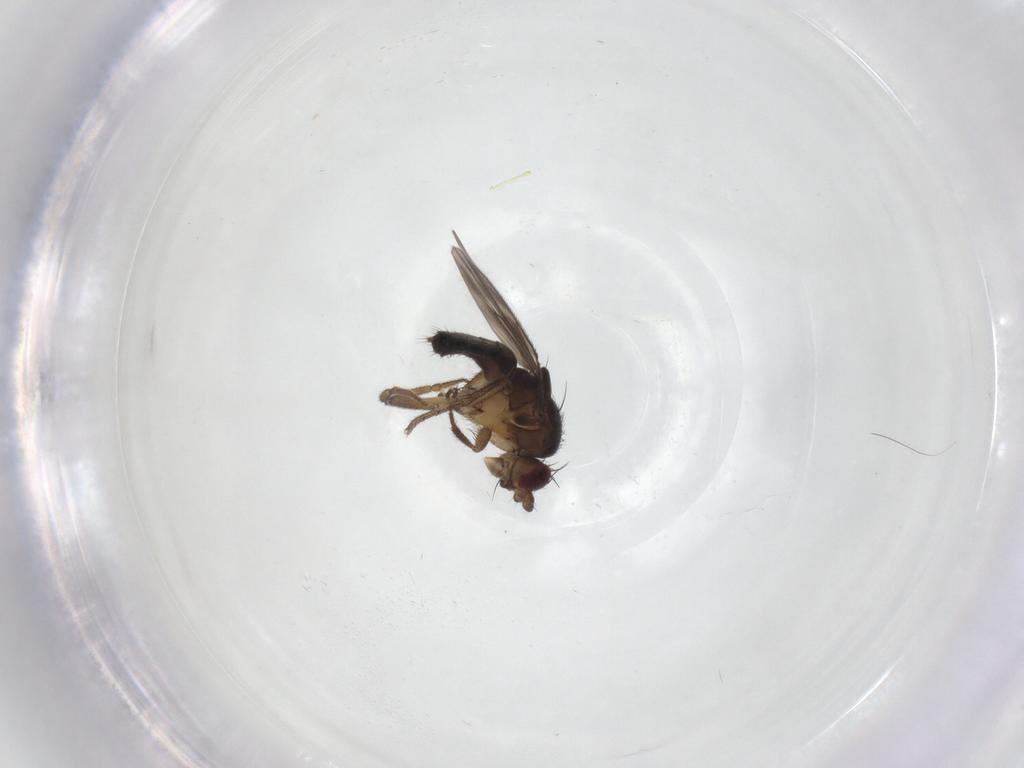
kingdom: Animalia
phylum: Arthropoda
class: Insecta
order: Diptera
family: Sphaeroceridae
